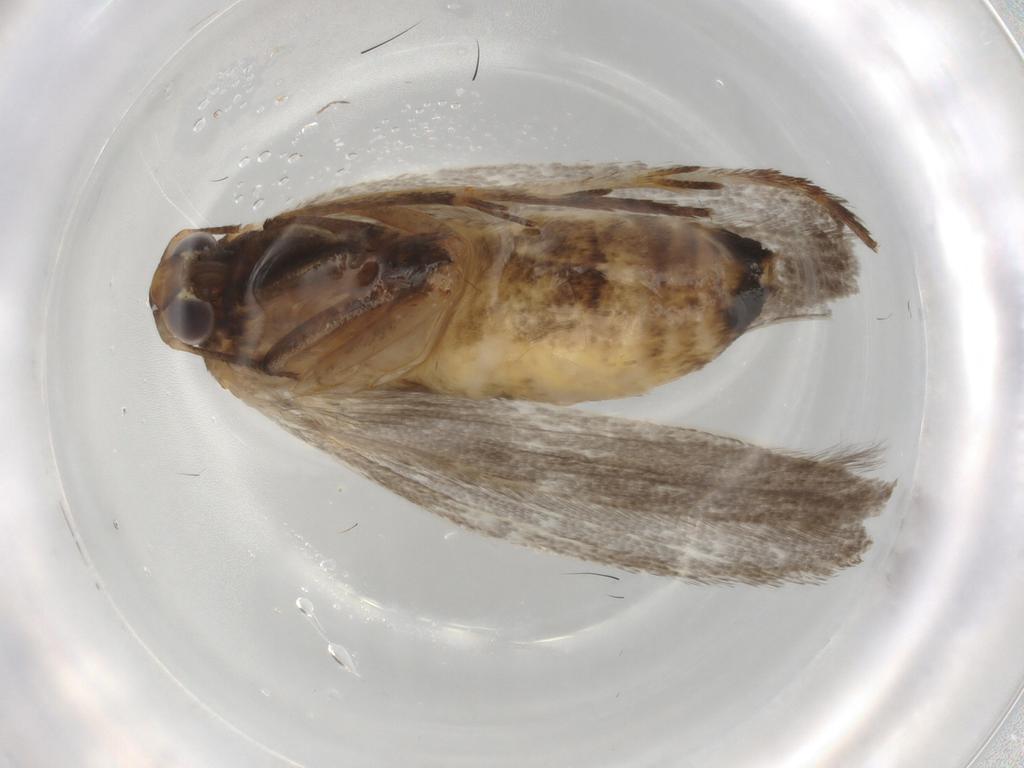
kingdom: Animalia
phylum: Arthropoda
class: Insecta
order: Lepidoptera
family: Epermeniidae
